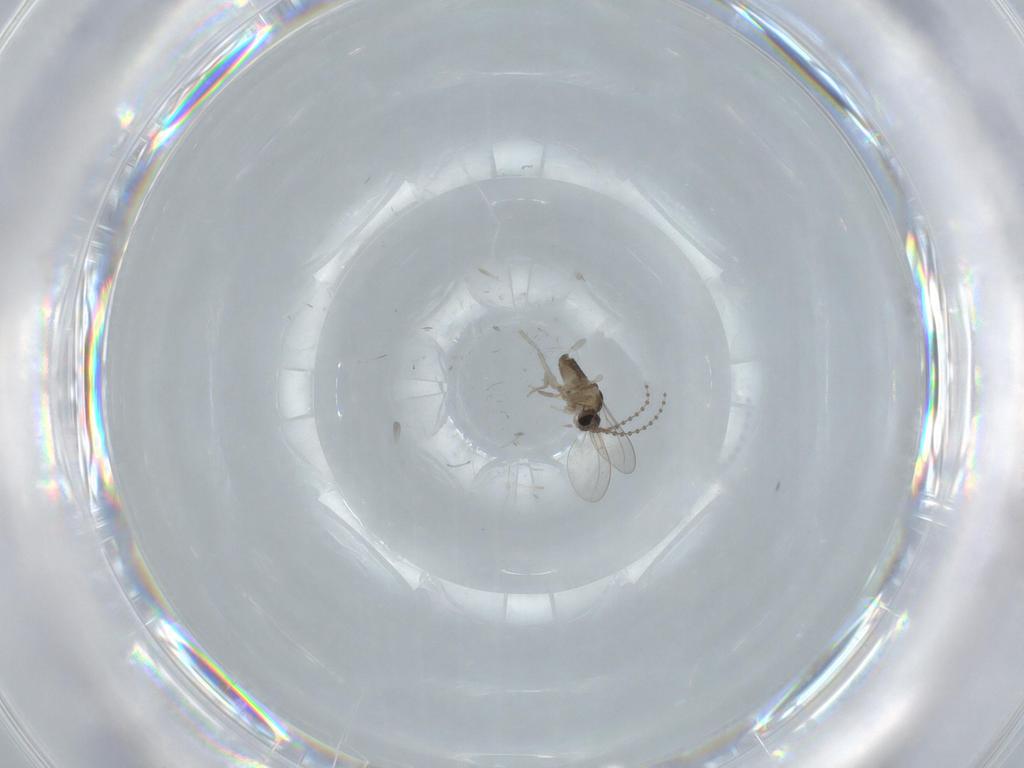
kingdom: Animalia
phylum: Arthropoda
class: Insecta
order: Diptera
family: Cecidomyiidae
